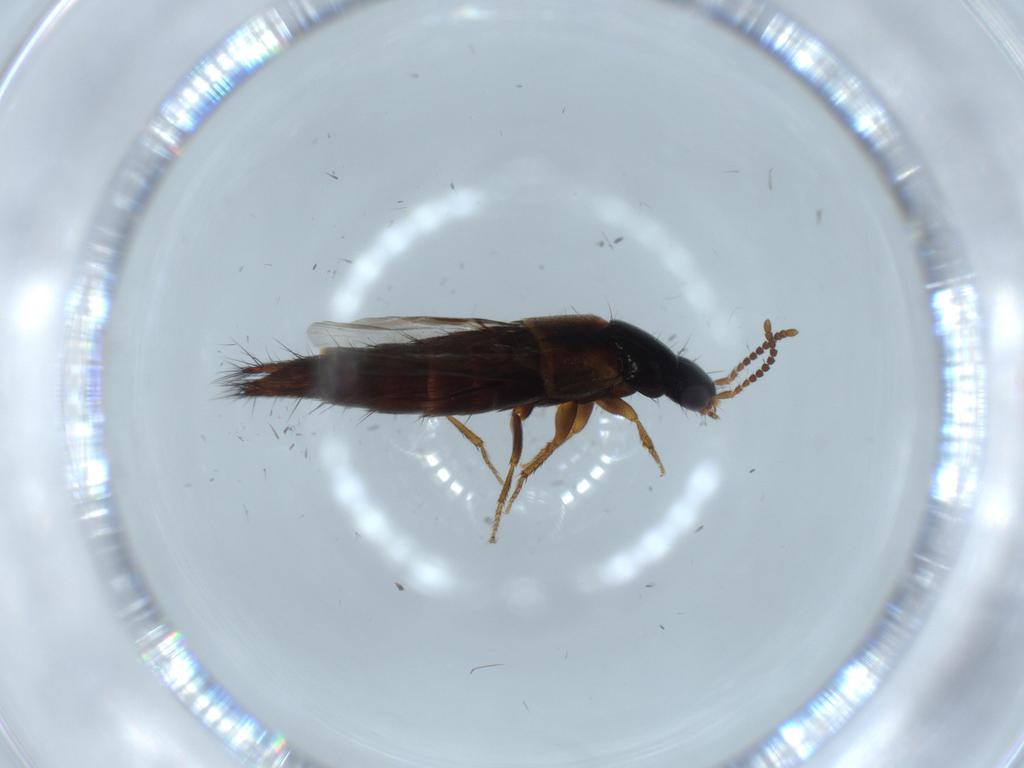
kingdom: Animalia
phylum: Arthropoda
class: Insecta
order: Coleoptera
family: Staphylinidae
